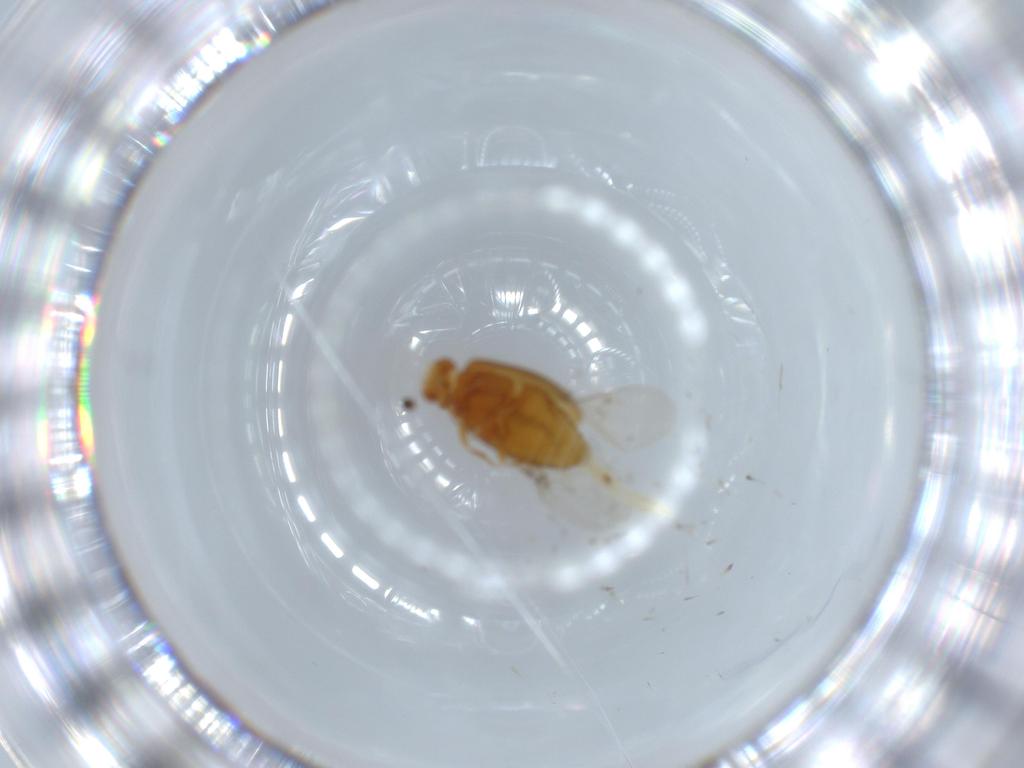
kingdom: Animalia
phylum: Arthropoda
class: Insecta
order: Coleoptera
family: Aderidae
